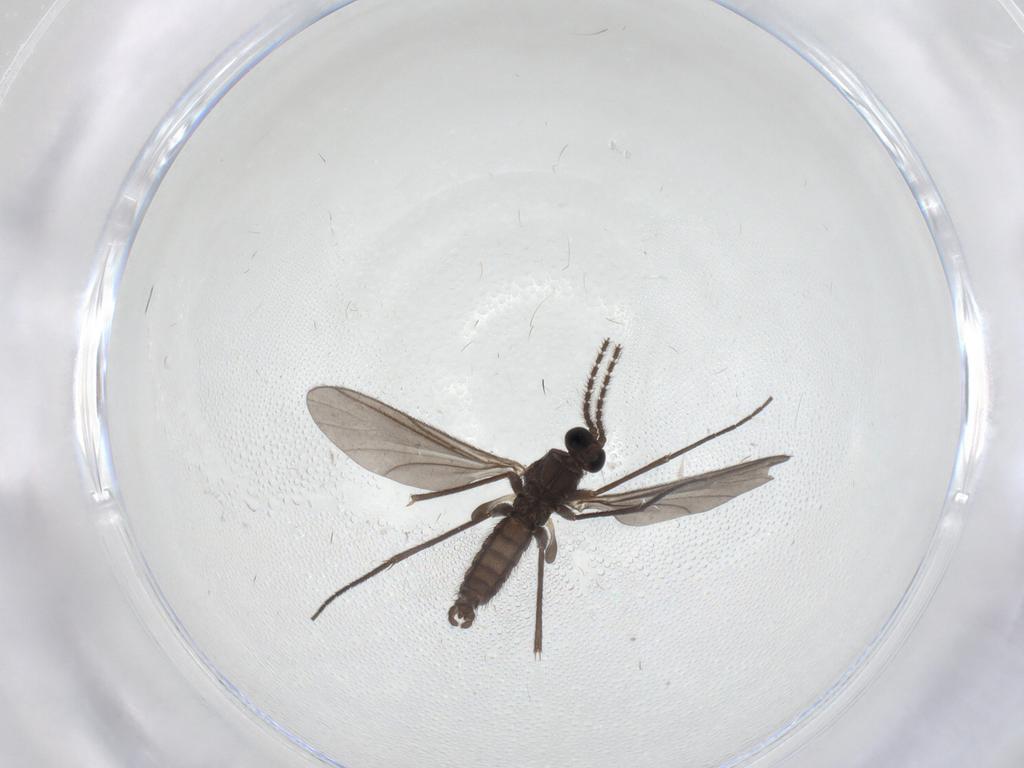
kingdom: Animalia
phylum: Arthropoda
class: Insecta
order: Diptera
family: Sciaridae
